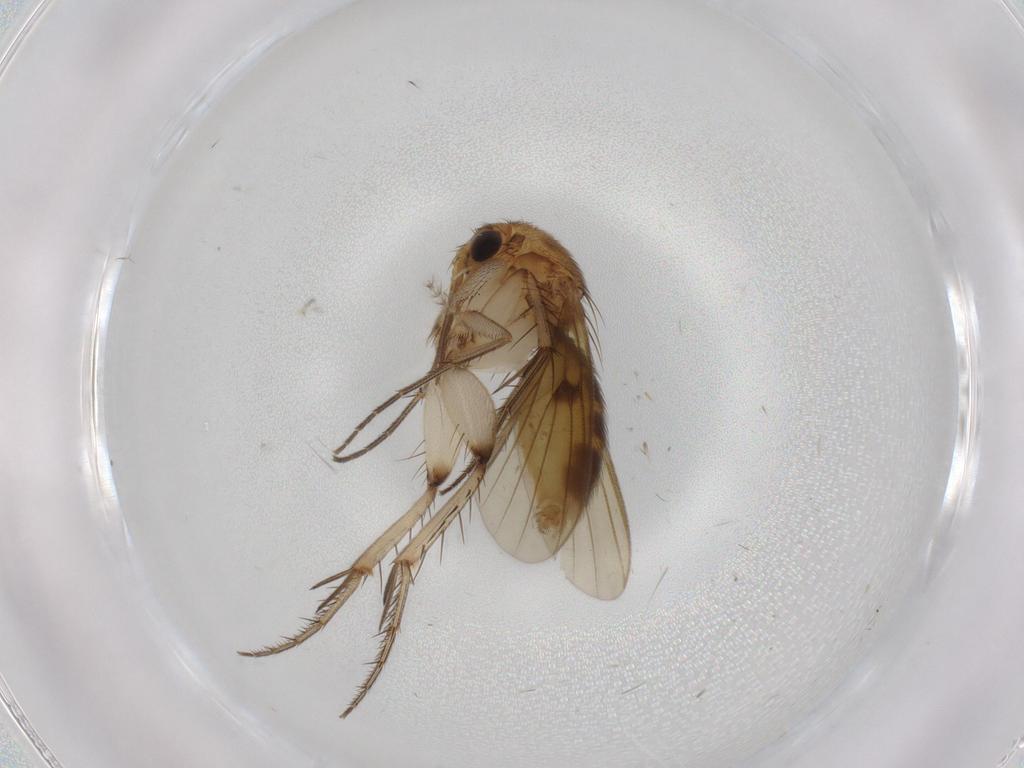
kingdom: Animalia
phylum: Arthropoda
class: Insecta
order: Diptera
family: Chironomidae
